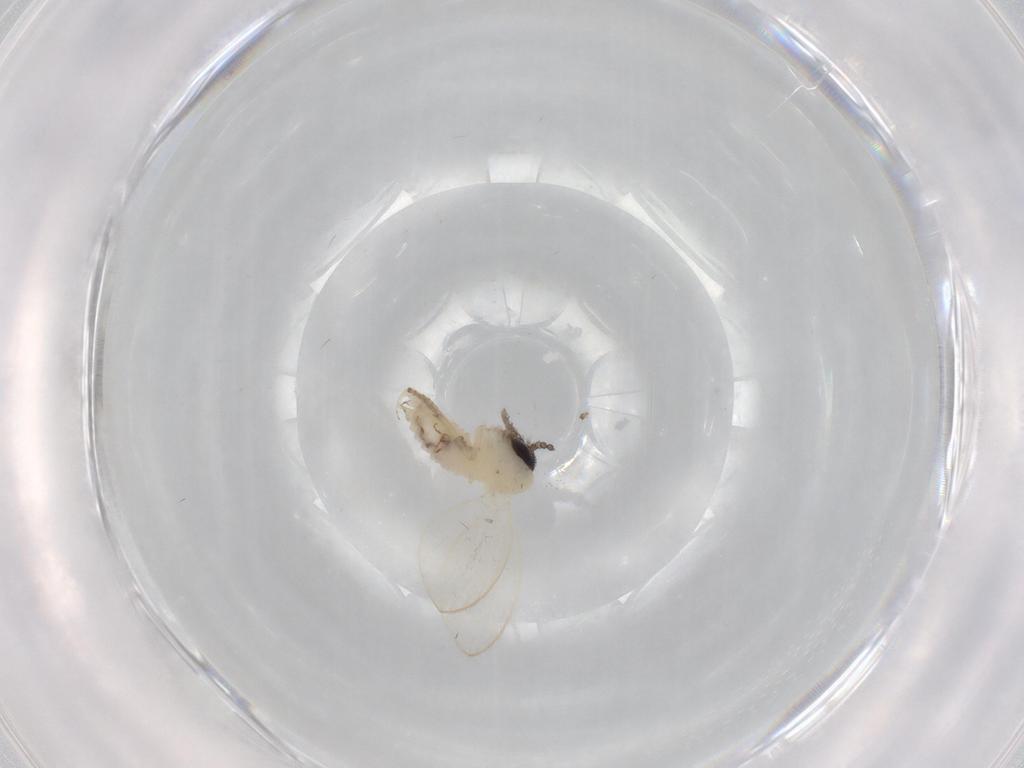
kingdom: Animalia
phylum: Arthropoda
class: Insecta
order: Diptera
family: Psychodidae
